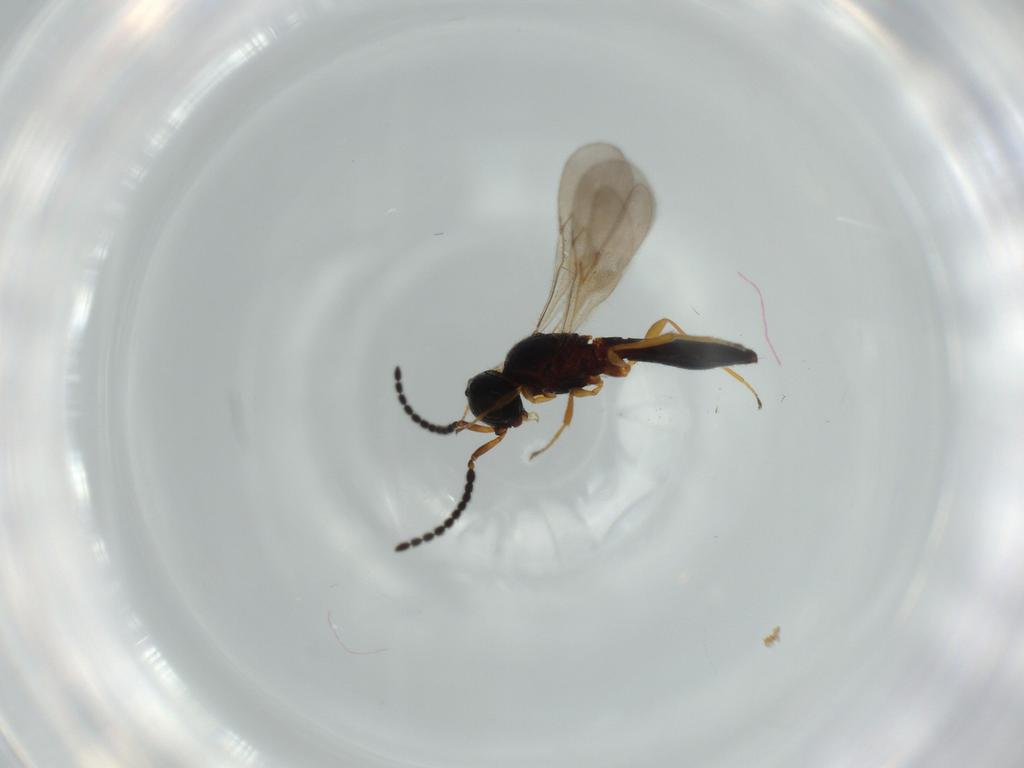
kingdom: Animalia
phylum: Arthropoda
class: Insecta
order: Hymenoptera
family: Scelionidae
